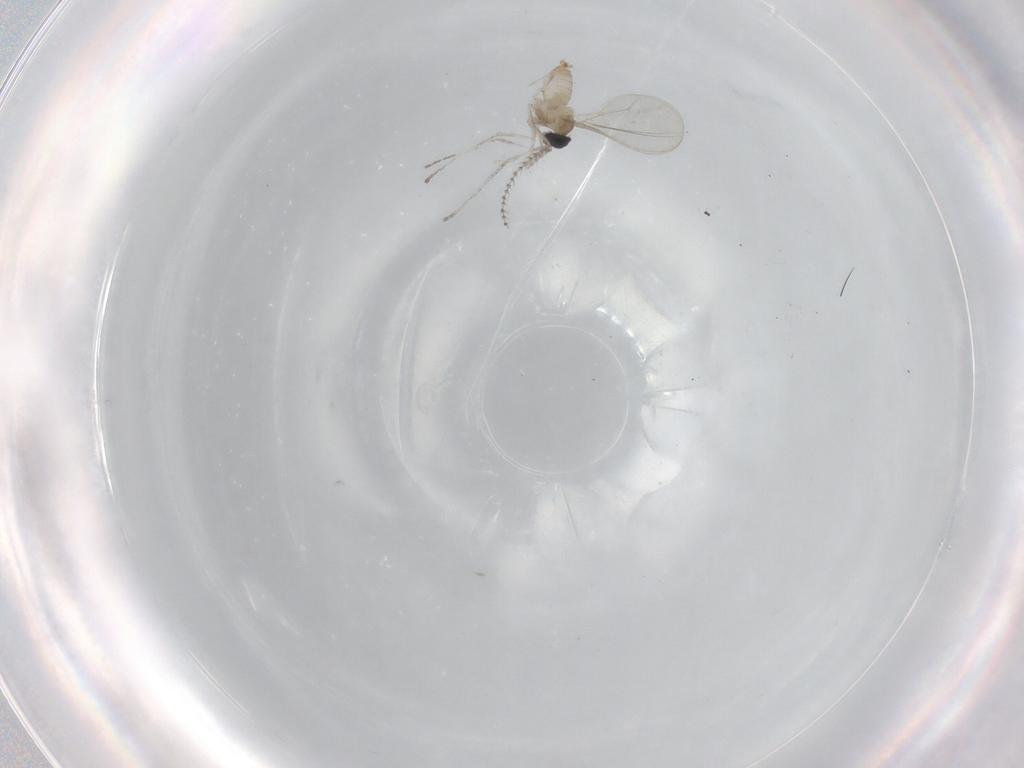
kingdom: Animalia
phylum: Arthropoda
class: Insecta
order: Diptera
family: Cecidomyiidae
